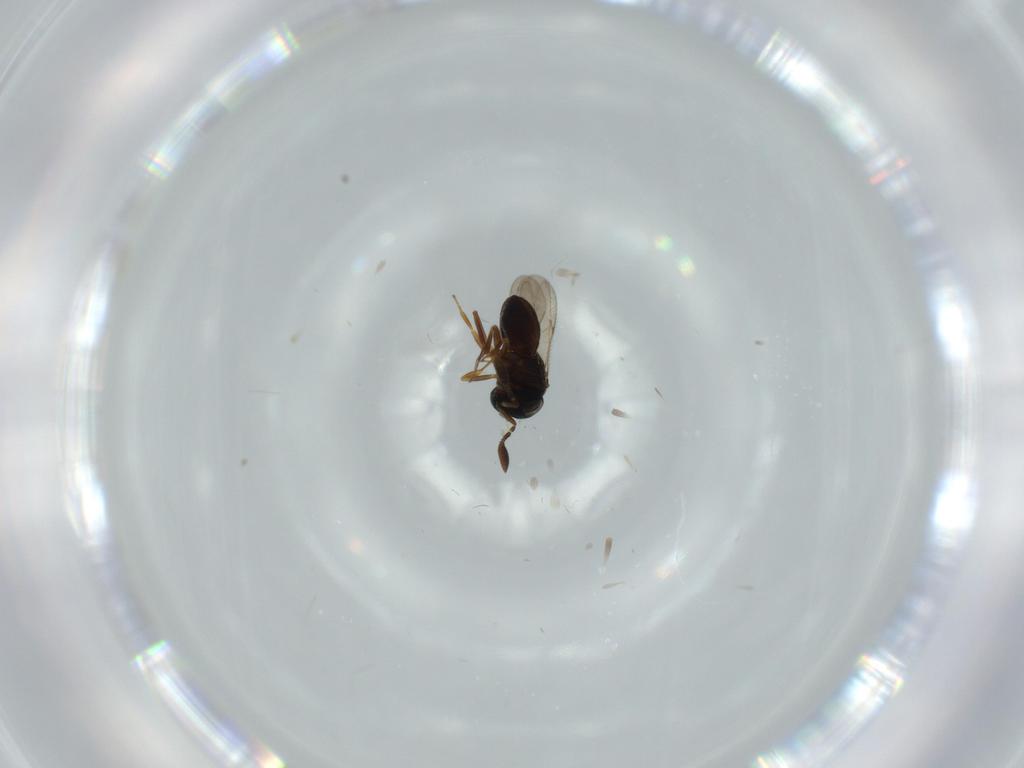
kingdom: Animalia
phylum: Arthropoda
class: Insecta
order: Coleoptera
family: Curculionidae
